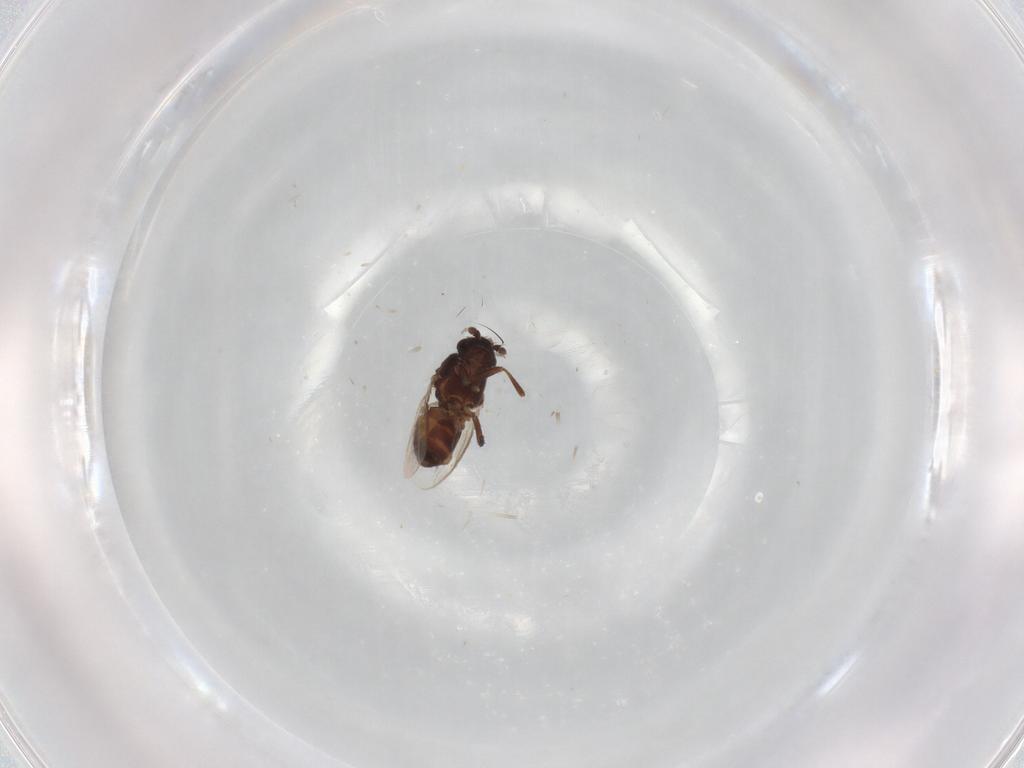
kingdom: Animalia
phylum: Arthropoda
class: Insecta
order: Diptera
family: Sphaeroceridae
